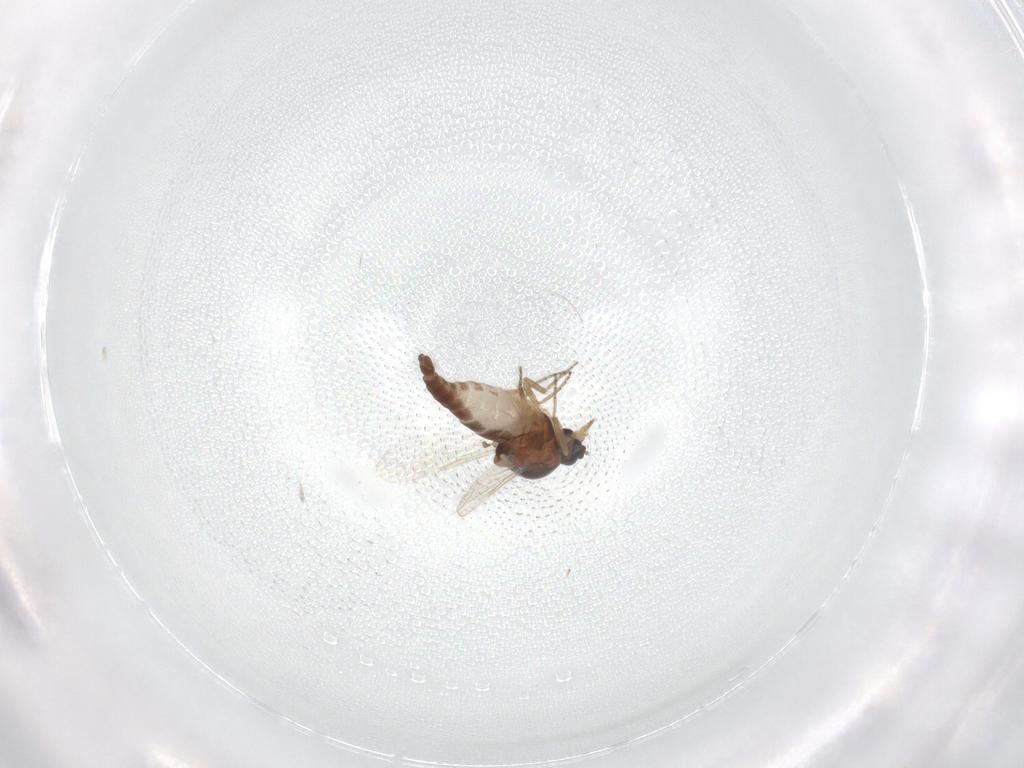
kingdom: Animalia
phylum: Arthropoda
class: Insecta
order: Diptera
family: Ceratopogonidae
